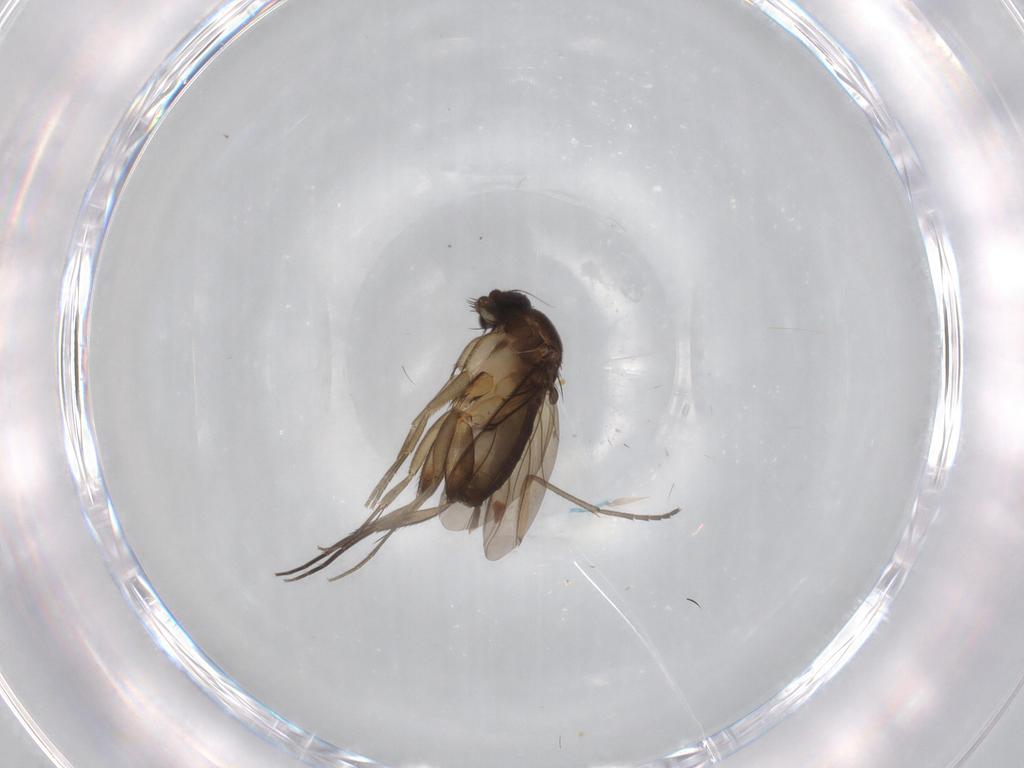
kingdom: Animalia
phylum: Arthropoda
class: Insecta
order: Diptera
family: Phoridae
